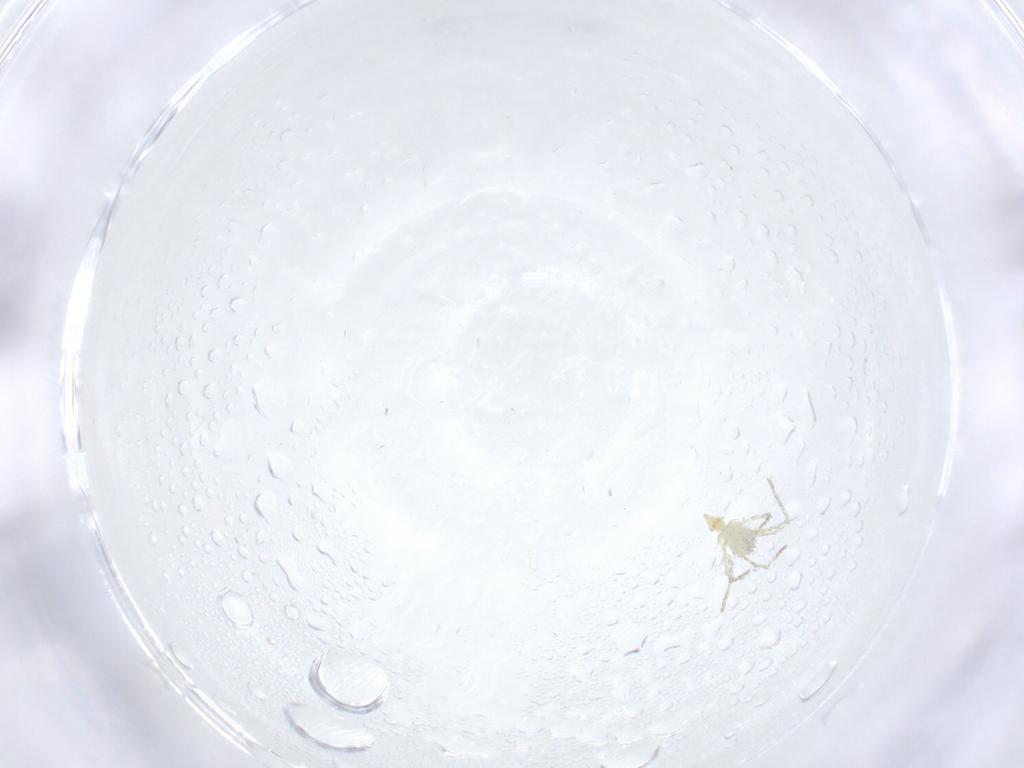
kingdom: Animalia
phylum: Arthropoda
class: Arachnida
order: Trombidiformes
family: Erythraeidae
